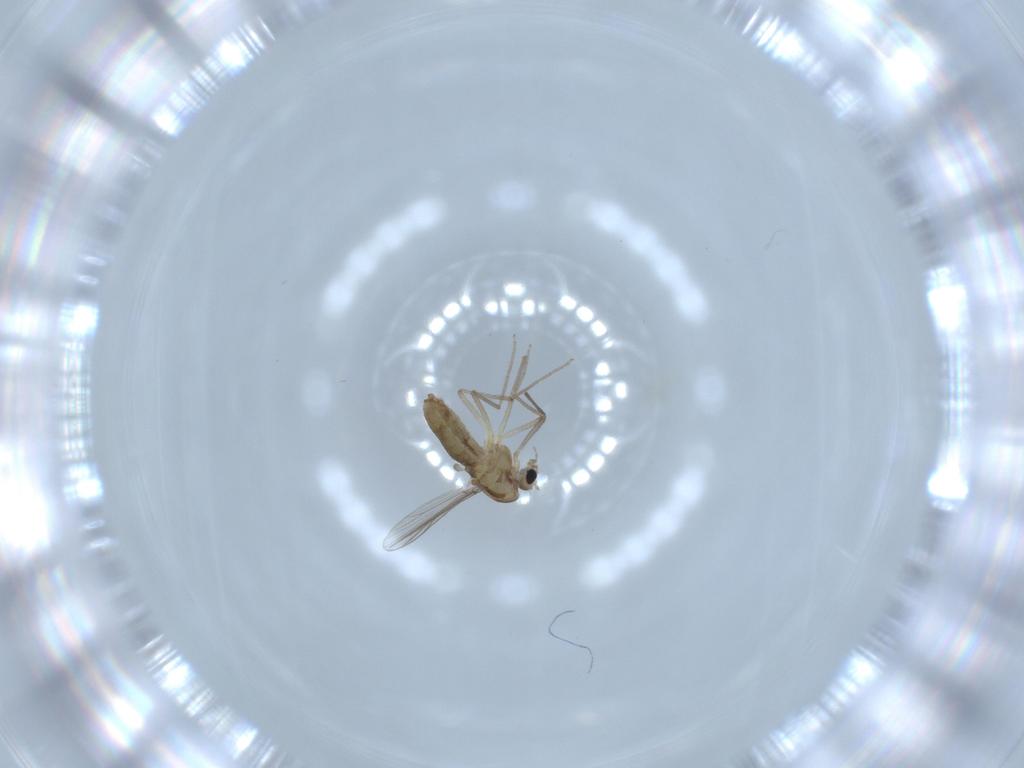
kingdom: Animalia
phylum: Arthropoda
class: Insecta
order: Diptera
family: Chironomidae
